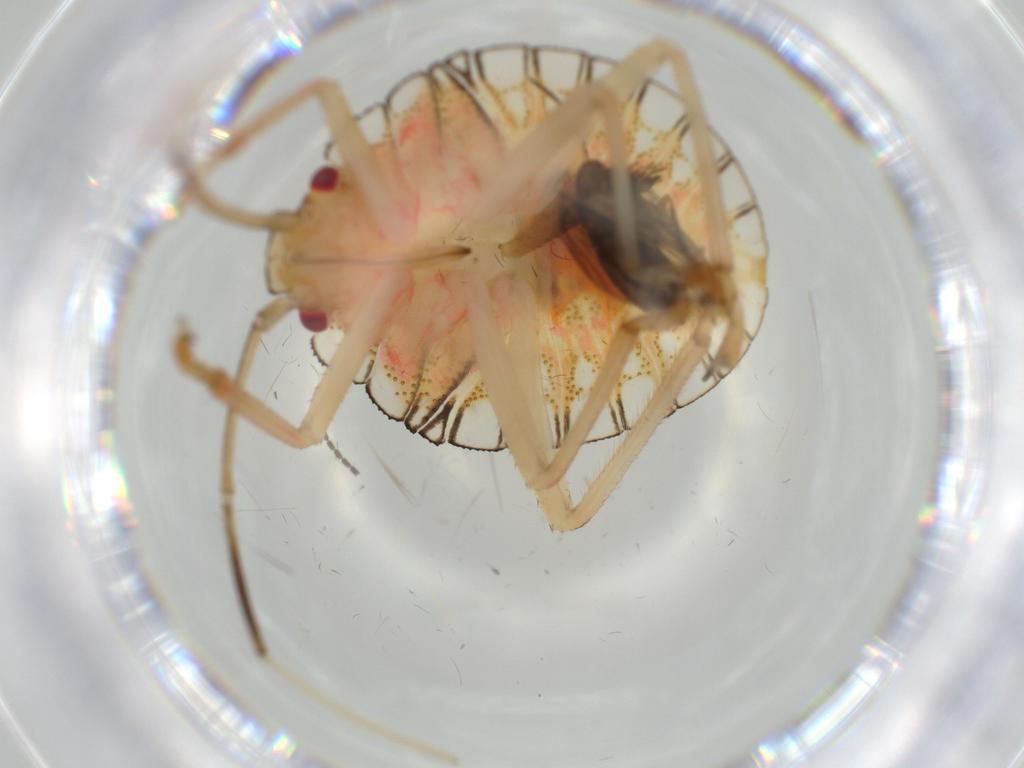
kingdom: Animalia
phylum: Arthropoda
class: Insecta
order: Hemiptera
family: Pentatomidae
